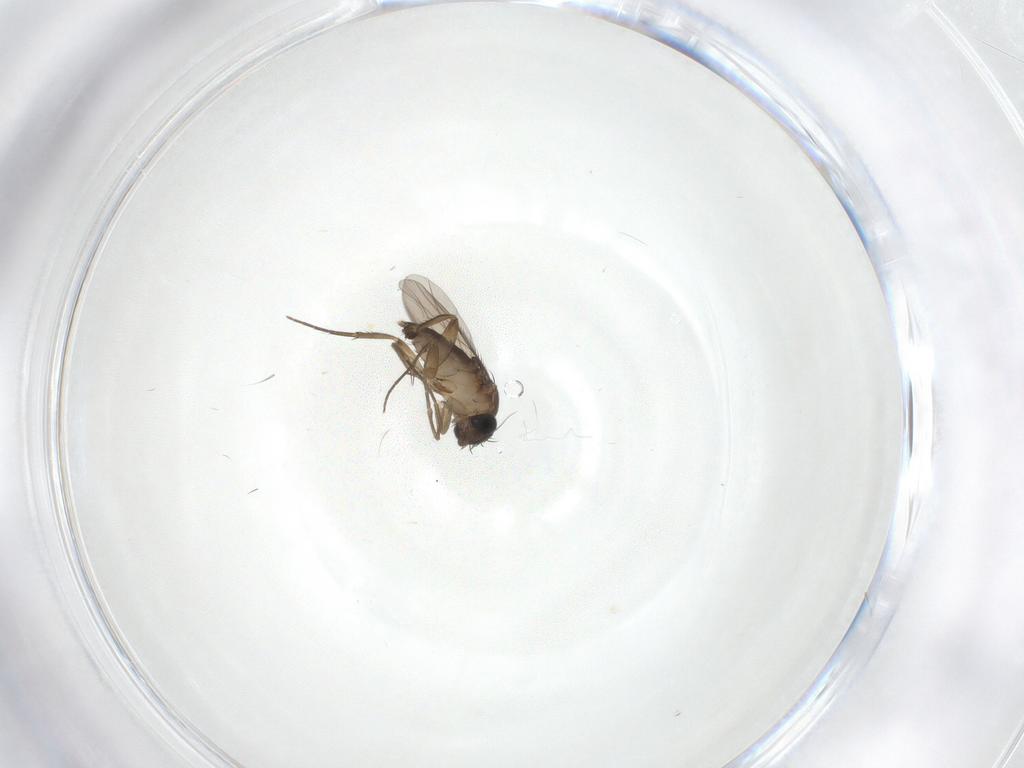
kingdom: Animalia
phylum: Arthropoda
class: Insecta
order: Diptera
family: Phoridae
